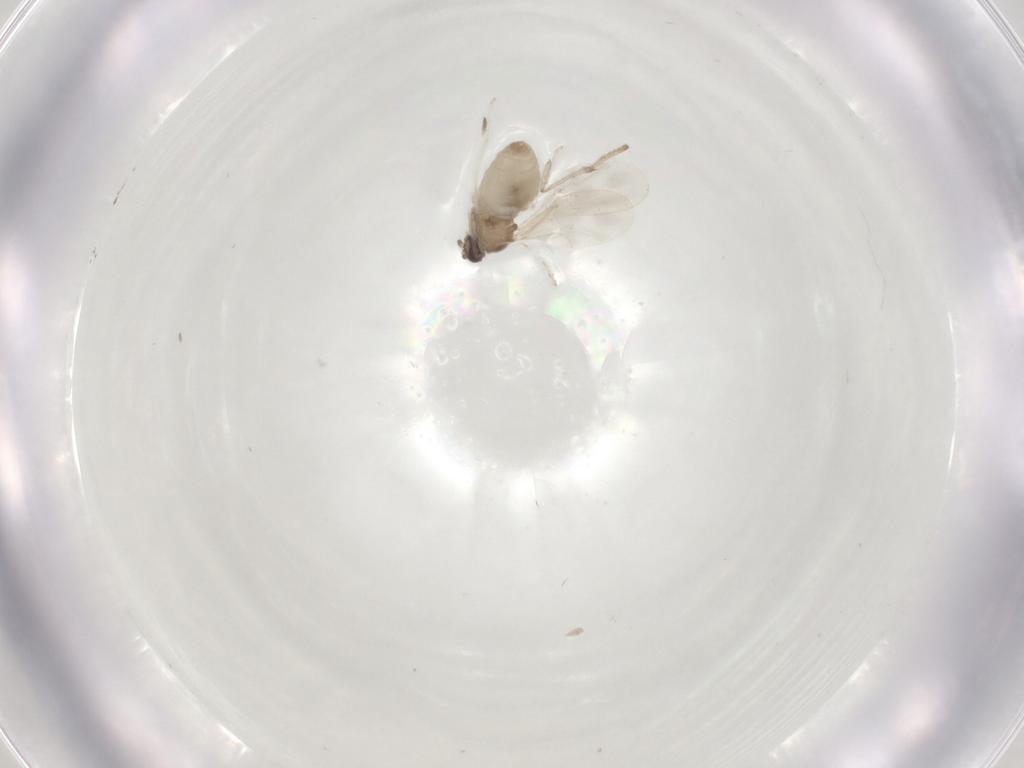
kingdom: Animalia
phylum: Arthropoda
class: Insecta
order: Diptera
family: Psychodidae
